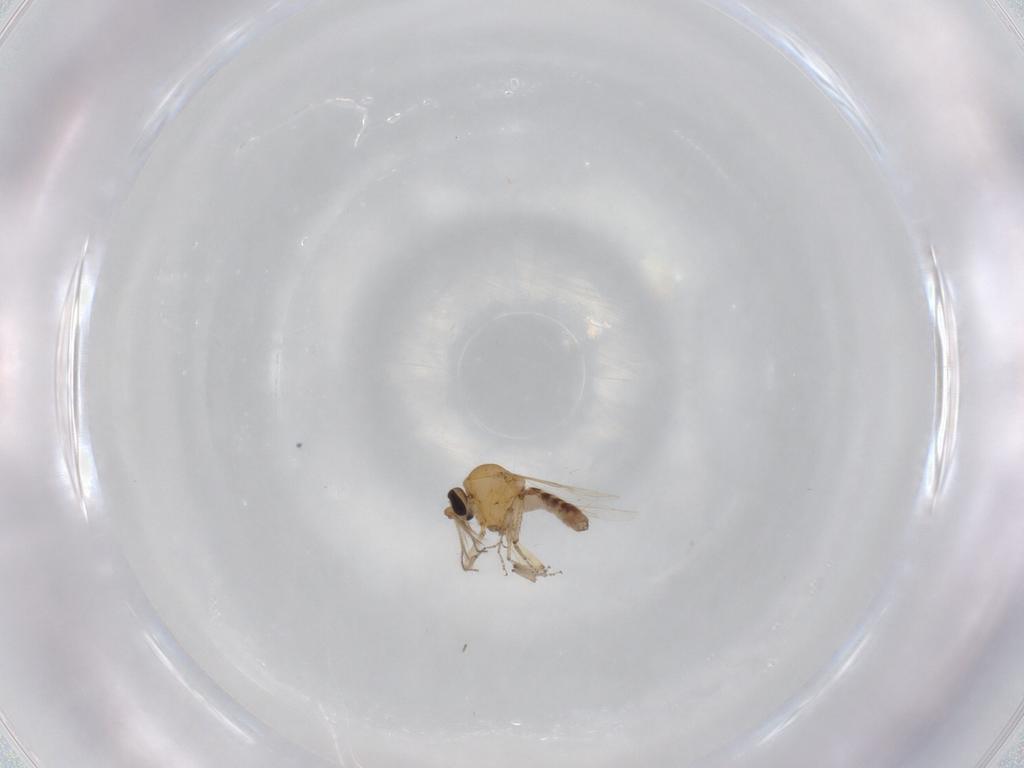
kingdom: Animalia
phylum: Arthropoda
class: Insecta
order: Diptera
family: Ceratopogonidae
